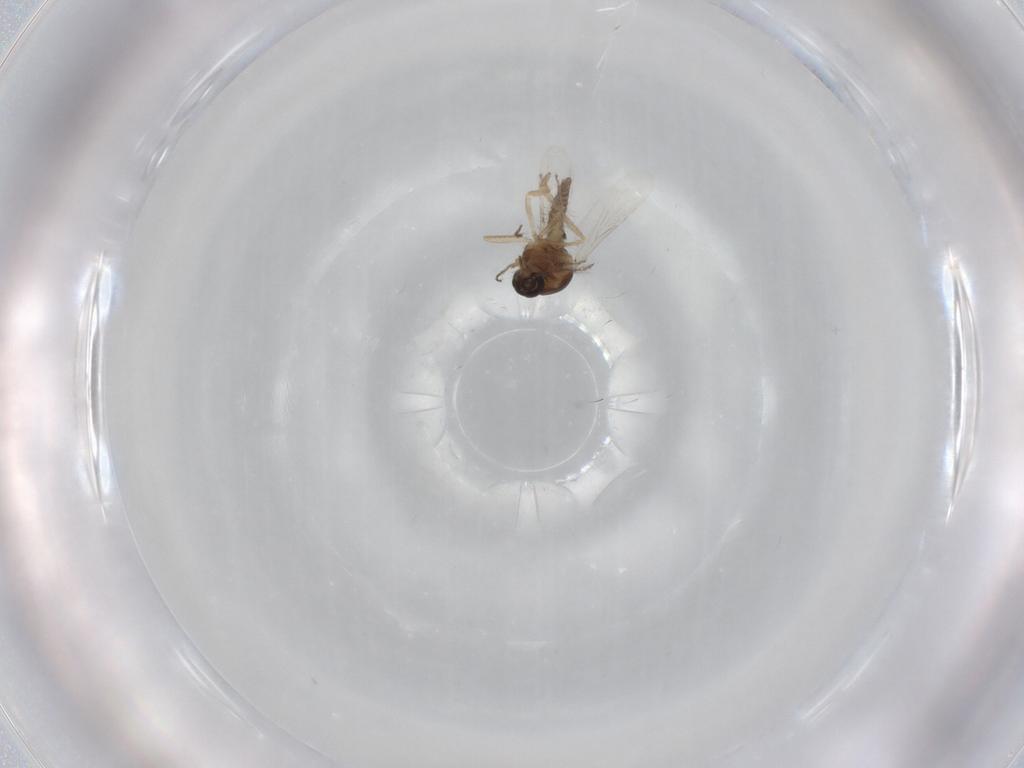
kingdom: Animalia
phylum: Arthropoda
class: Insecta
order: Diptera
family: Ceratopogonidae
